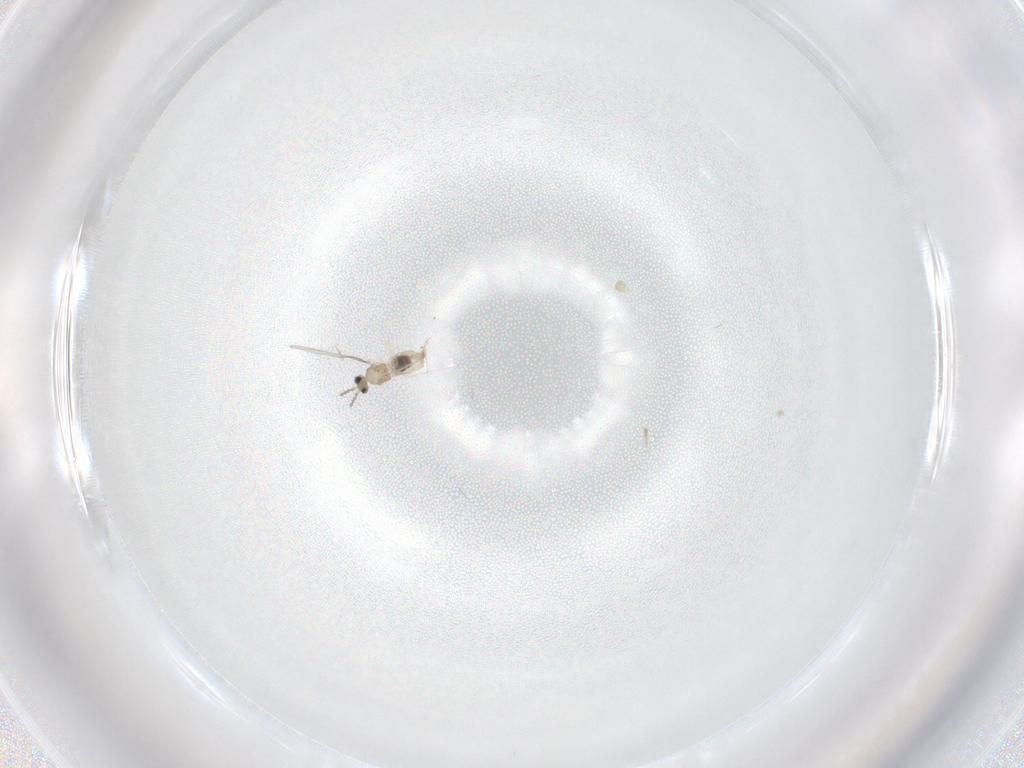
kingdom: Animalia
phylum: Arthropoda
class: Insecta
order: Diptera
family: Cecidomyiidae
